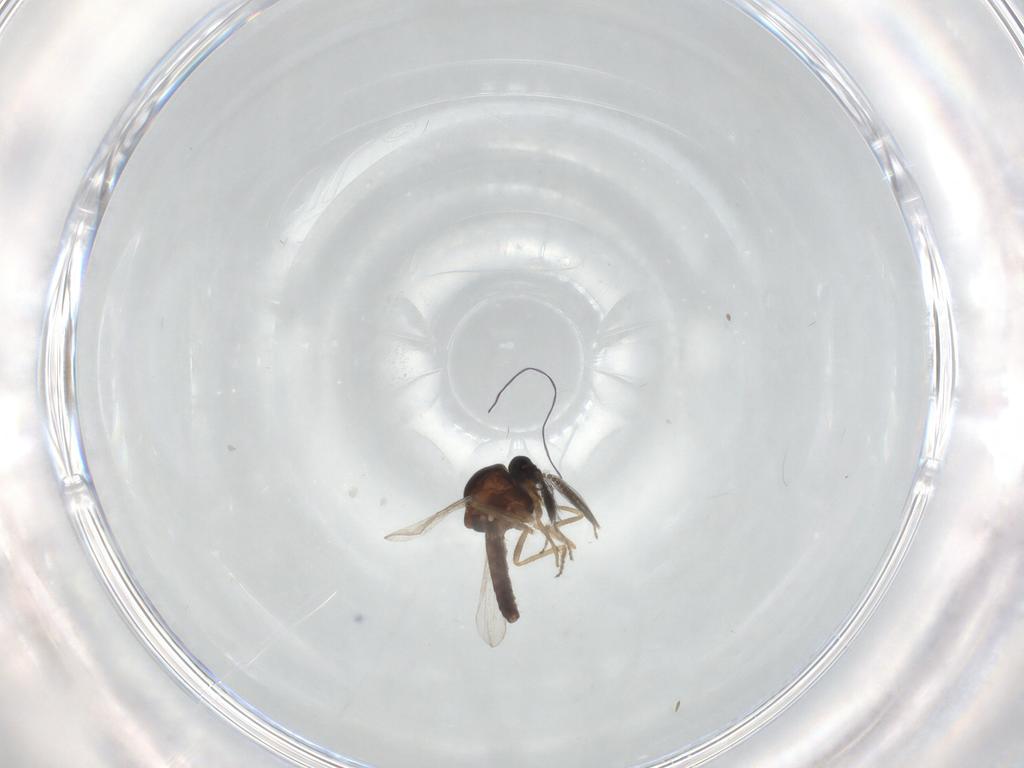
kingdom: Animalia
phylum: Arthropoda
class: Insecta
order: Diptera
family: Ceratopogonidae
